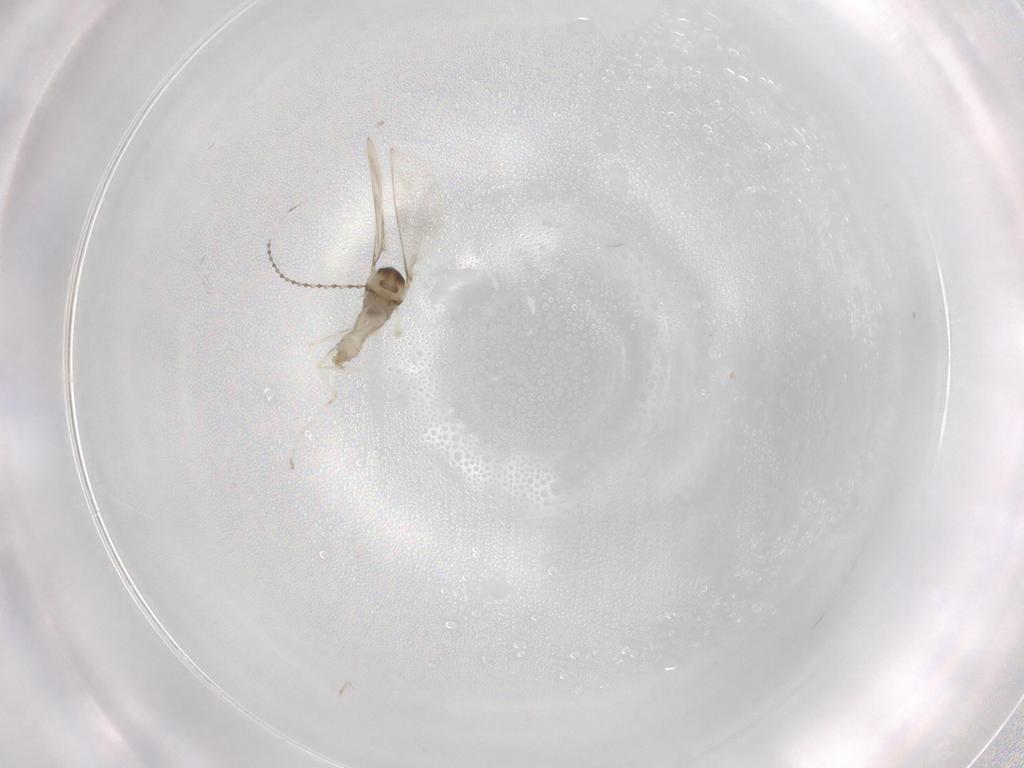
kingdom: Animalia
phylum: Arthropoda
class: Insecta
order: Diptera
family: Cecidomyiidae
